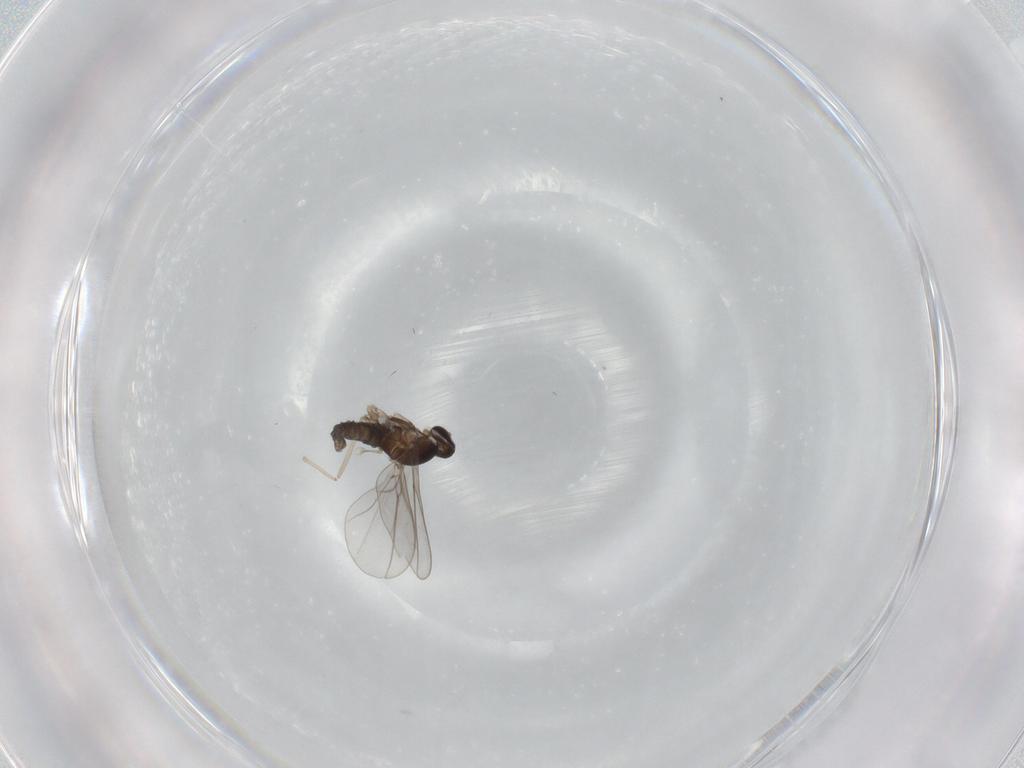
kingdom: Animalia
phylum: Arthropoda
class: Insecta
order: Diptera
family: Cecidomyiidae
